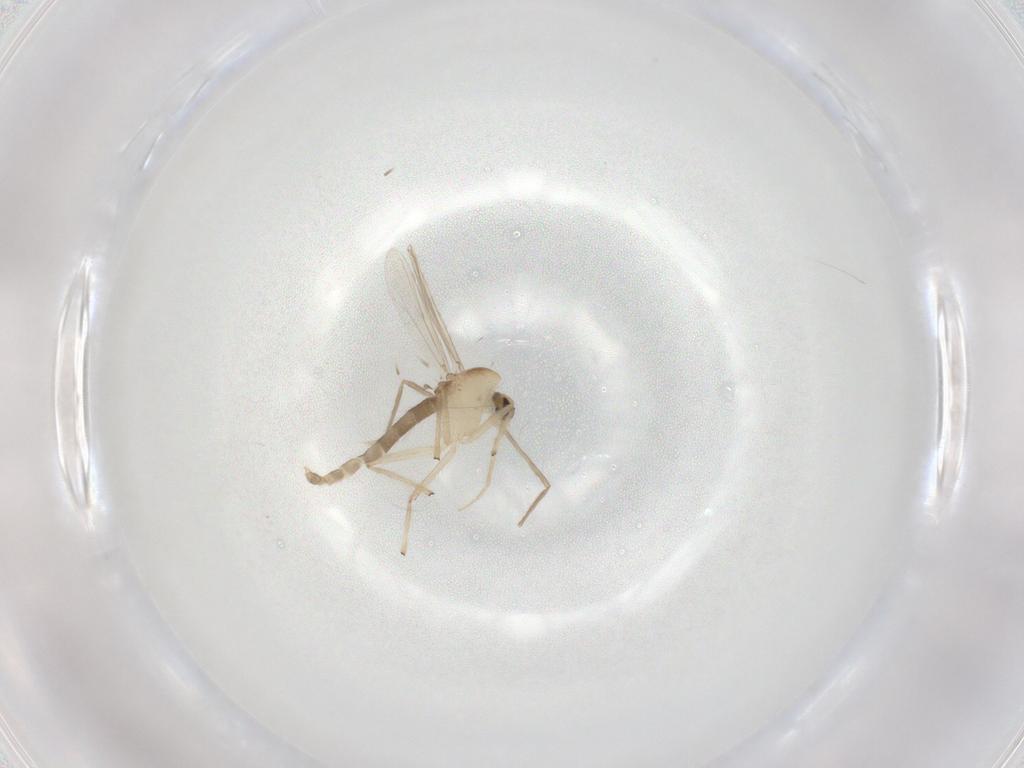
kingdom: Animalia
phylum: Arthropoda
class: Insecta
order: Diptera
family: Chironomidae
